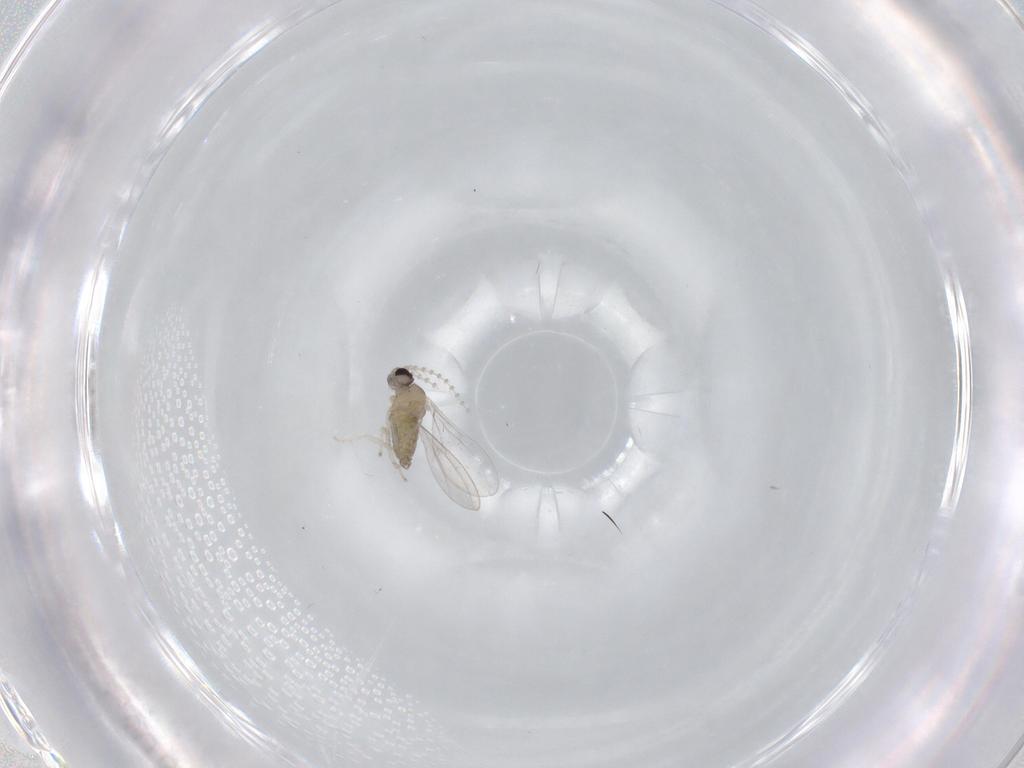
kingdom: Animalia
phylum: Arthropoda
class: Insecta
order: Diptera
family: Cecidomyiidae
